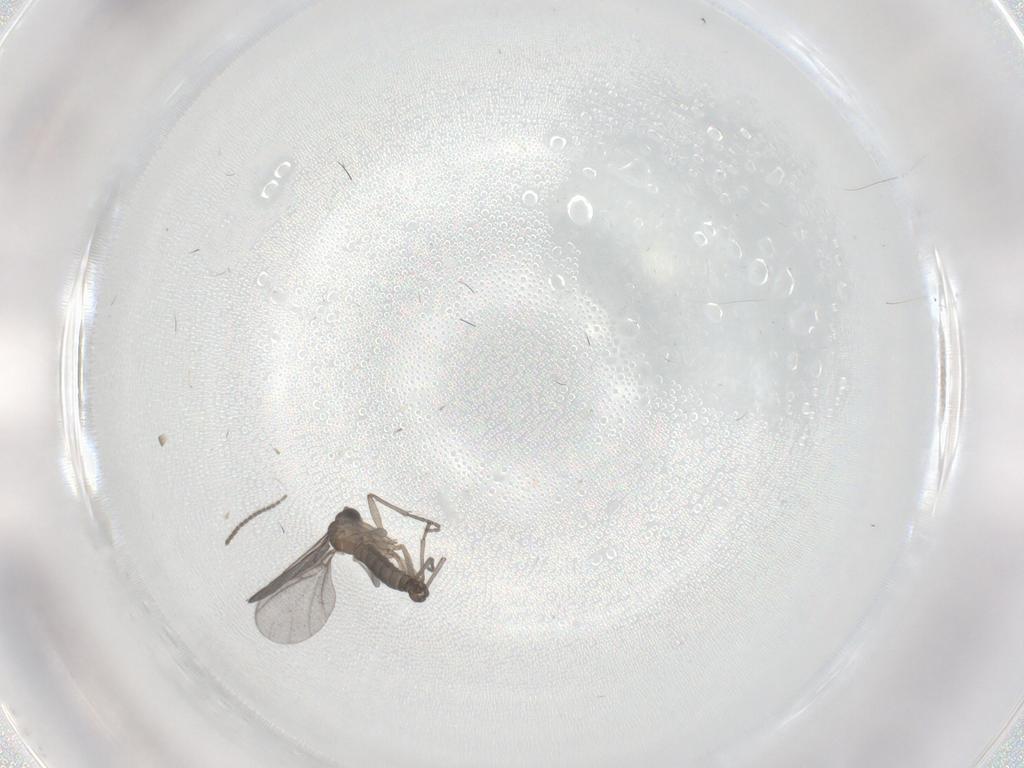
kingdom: Animalia
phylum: Arthropoda
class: Insecta
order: Diptera
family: Sciaridae
